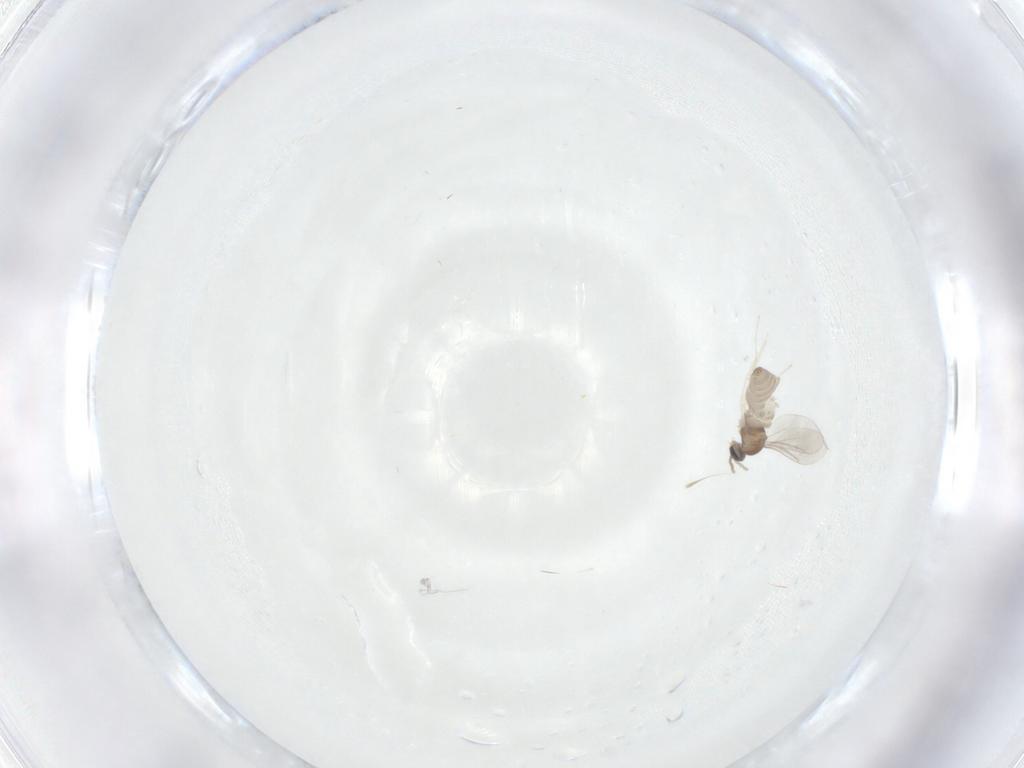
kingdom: Animalia
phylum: Arthropoda
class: Insecta
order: Diptera
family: Cecidomyiidae
